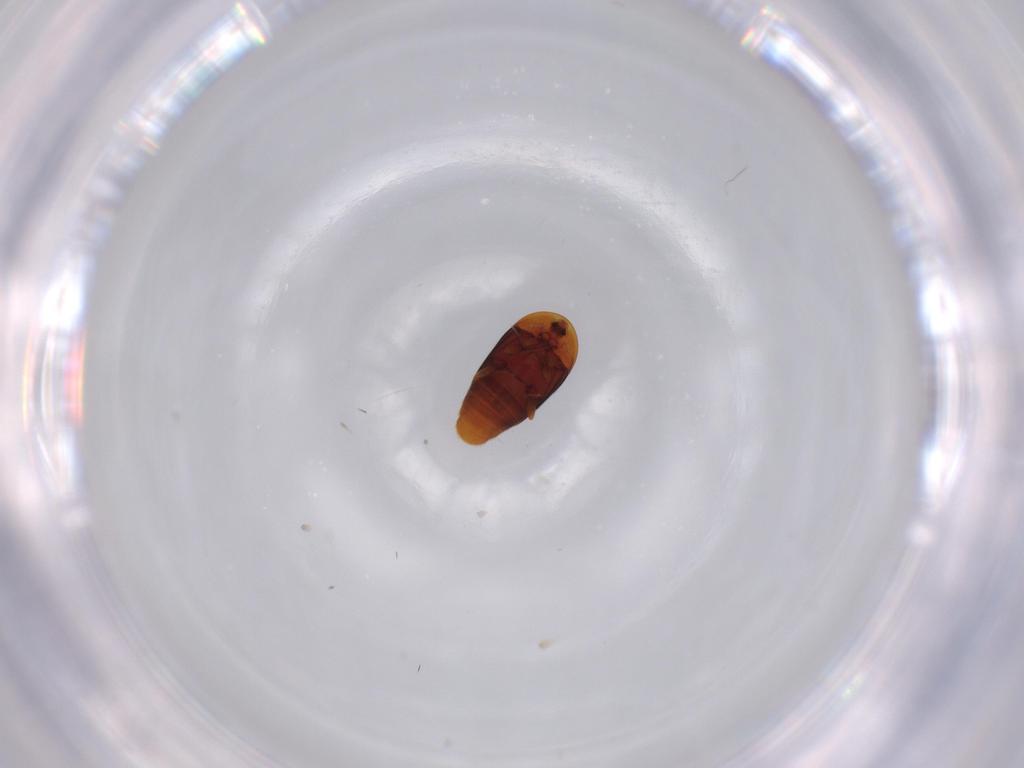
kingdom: Animalia
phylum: Arthropoda
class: Insecta
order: Coleoptera
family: Corylophidae
